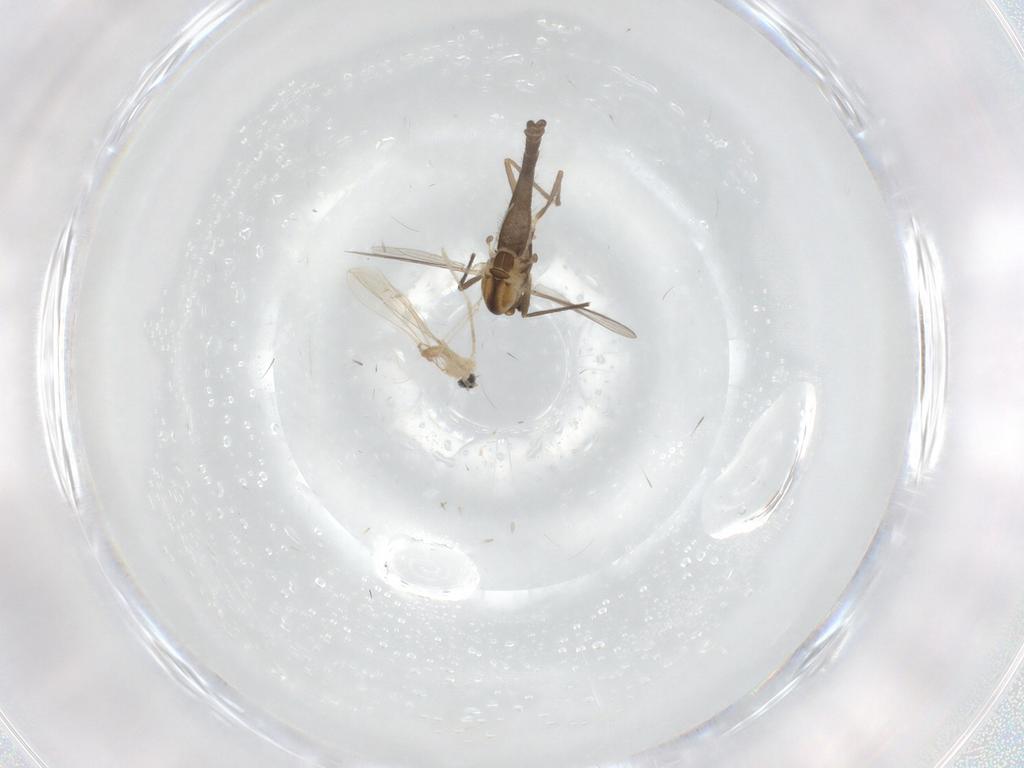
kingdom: Animalia
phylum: Arthropoda
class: Insecta
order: Diptera
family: Chironomidae
